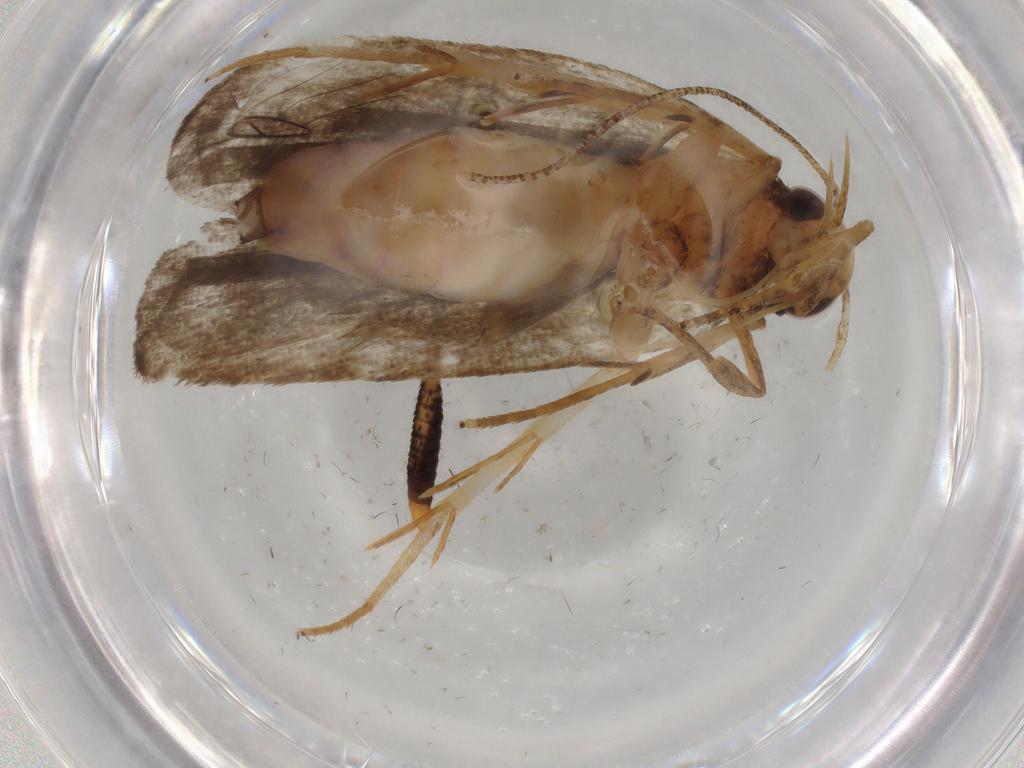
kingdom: Animalia
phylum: Arthropoda
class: Insecta
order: Lepidoptera
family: Autostichidae
